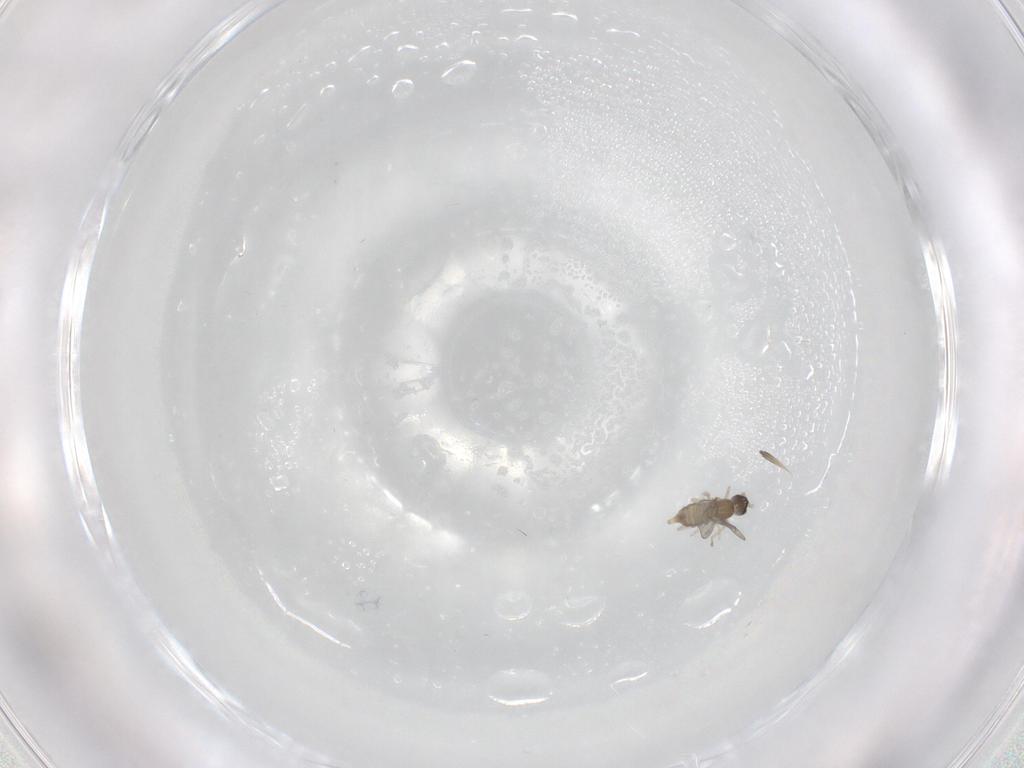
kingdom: Animalia
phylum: Arthropoda
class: Insecta
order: Diptera
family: Cecidomyiidae
